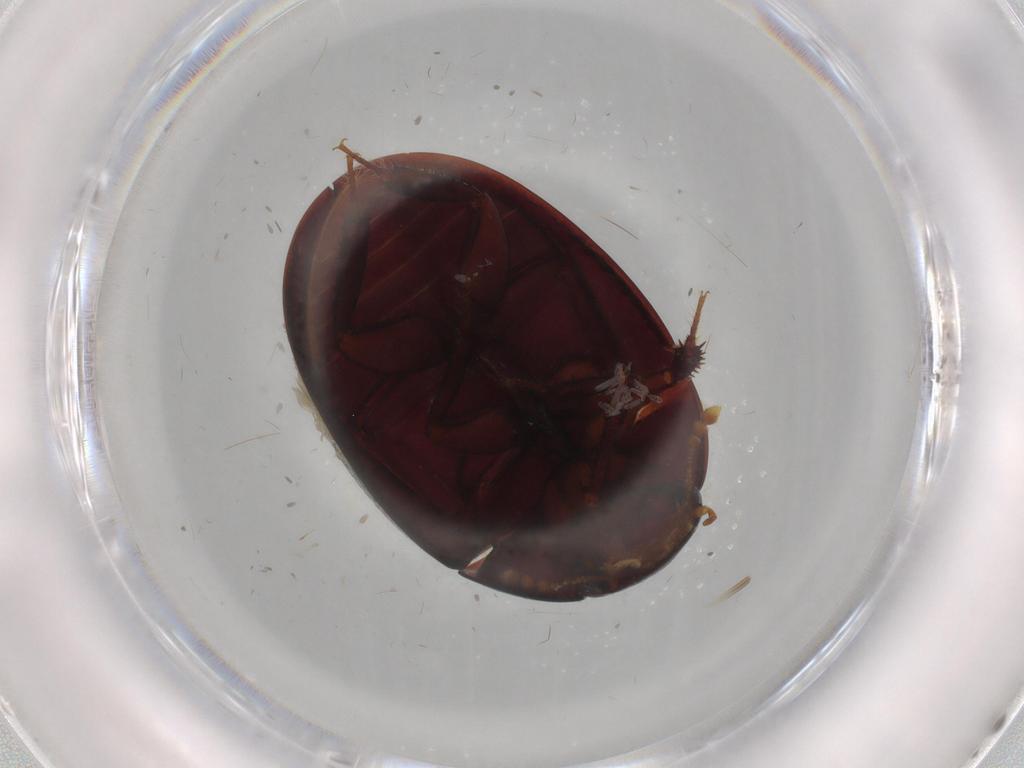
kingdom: Animalia
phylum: Arthropoda
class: Insecta
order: Coleoptera
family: Hydrophilidae
